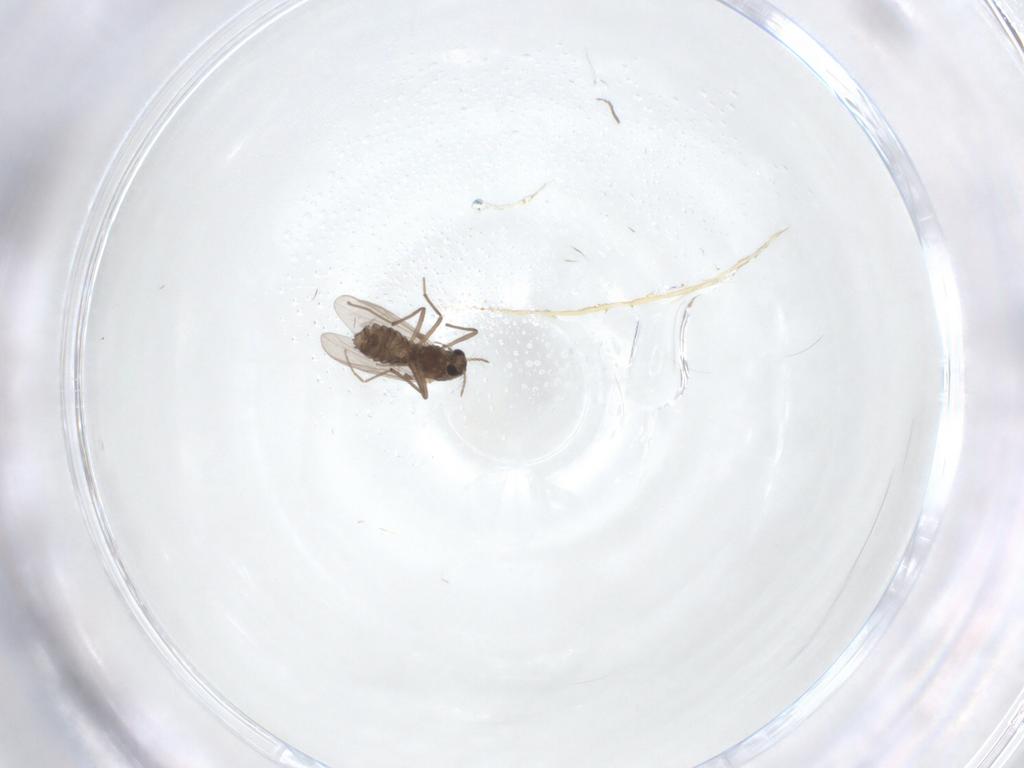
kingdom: Animalia
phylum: Arthropoda
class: Insecta
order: Diptera
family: Chironomidae
